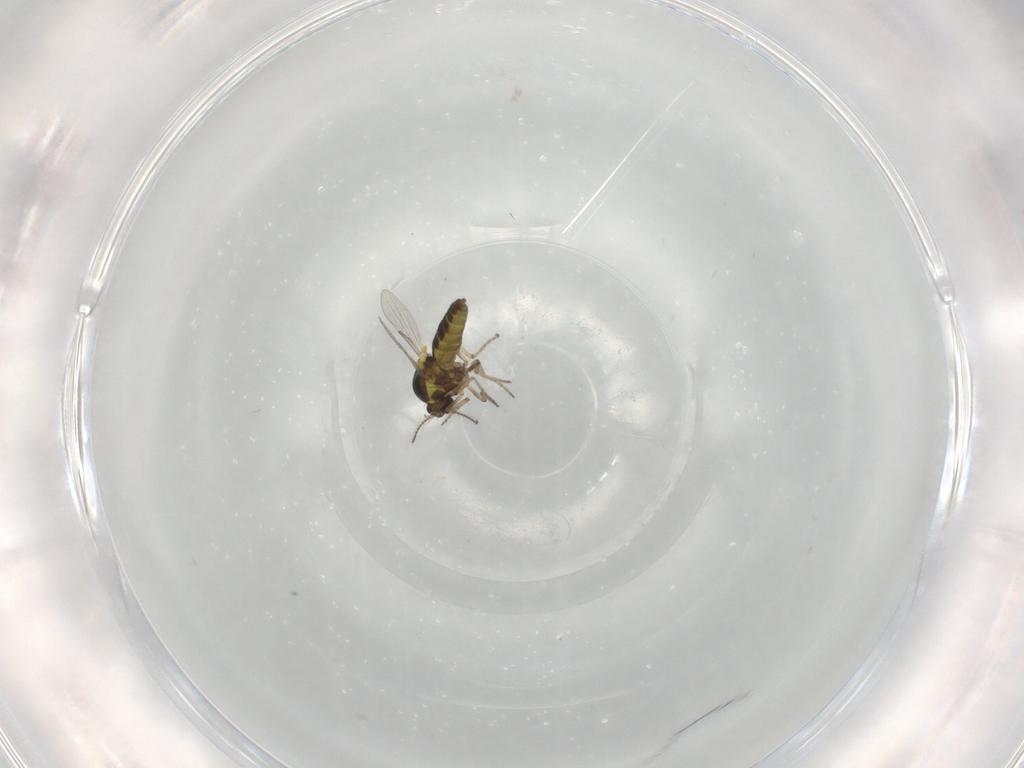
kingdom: Animalia
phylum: Arthropoda
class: Insecta
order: Diptera
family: Ceratopogonidae
